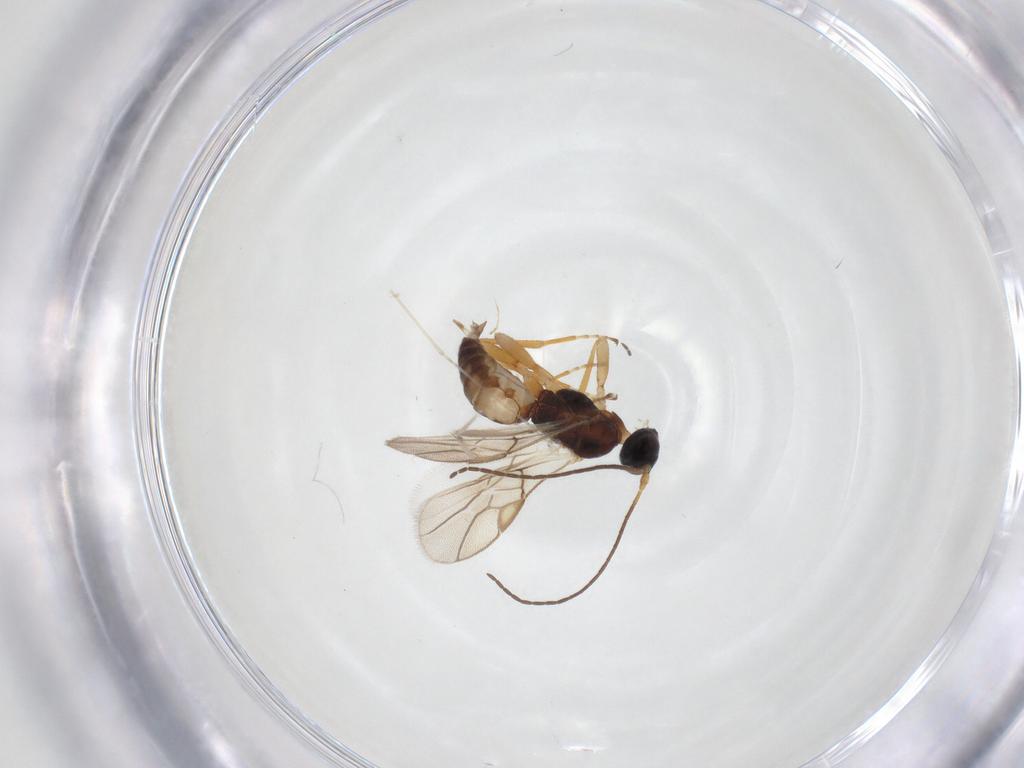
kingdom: Animalia
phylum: Arthropoda
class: Insecta
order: Hymenoptera
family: Braconidae
